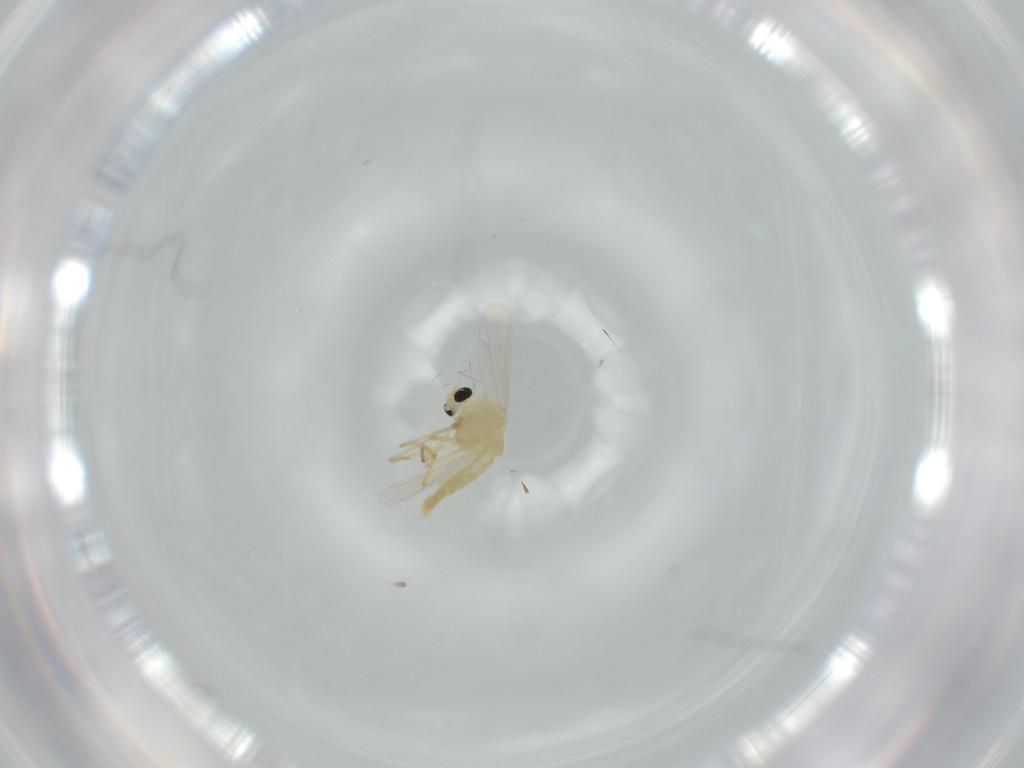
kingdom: Animalia
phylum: Arthropoda
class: Insecta
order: Diptera
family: Chironomidae
